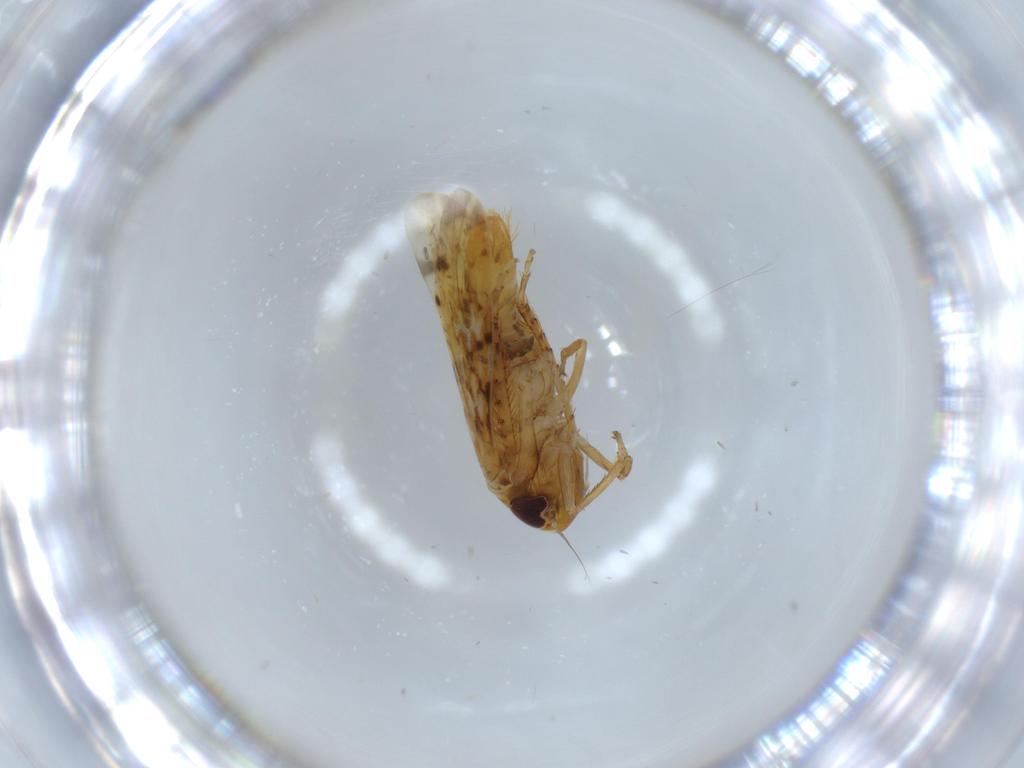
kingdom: Animalia
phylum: Arthropoda
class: Insecta
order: Hemiptera
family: Cicadellidae
